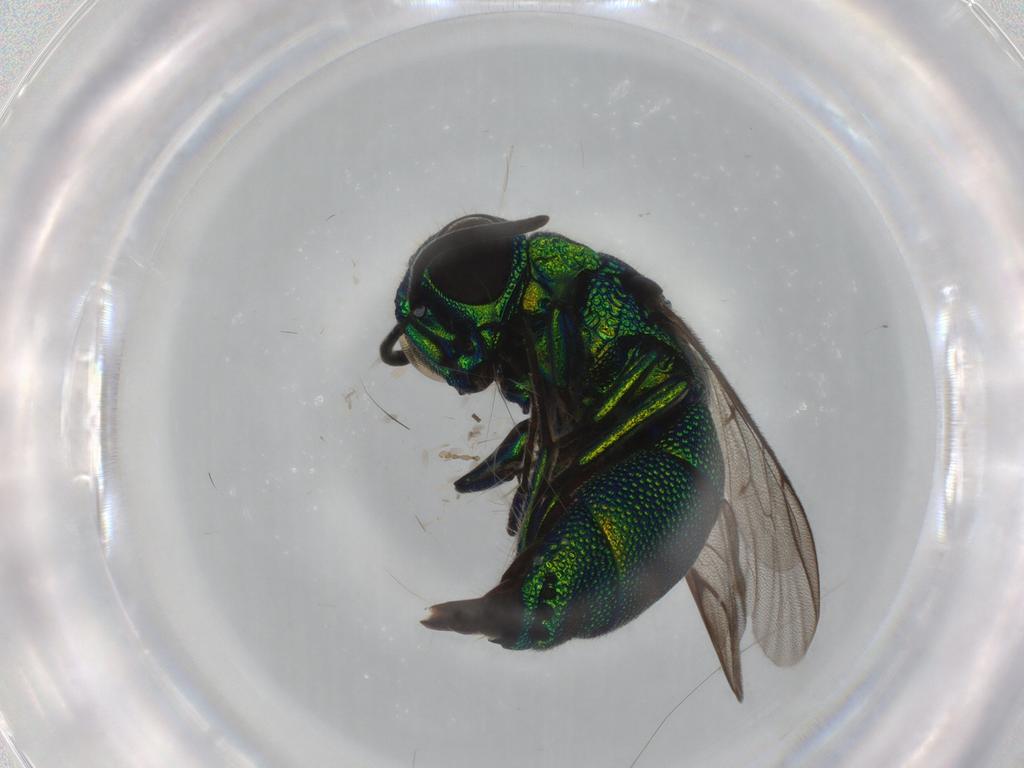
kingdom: Animalia
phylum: Arthropoda
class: Insecta
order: Hymenoptera
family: Chrysididae
